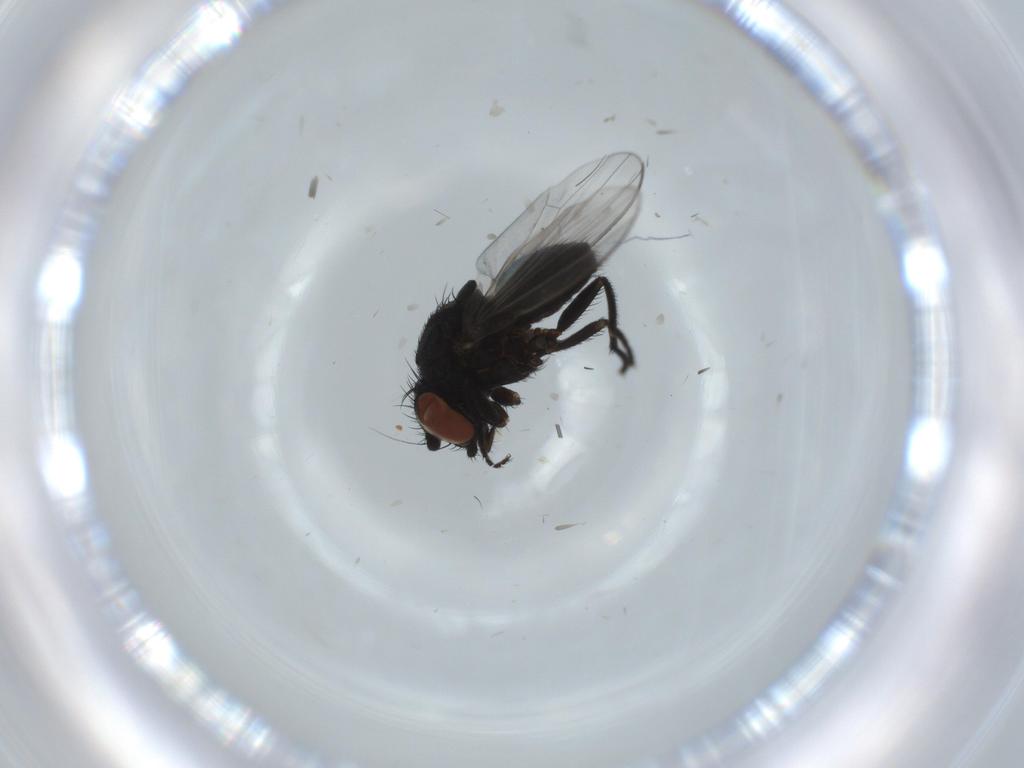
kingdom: Animalia
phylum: Arthropoda
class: Insecta
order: Diptera
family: Milichiidae
